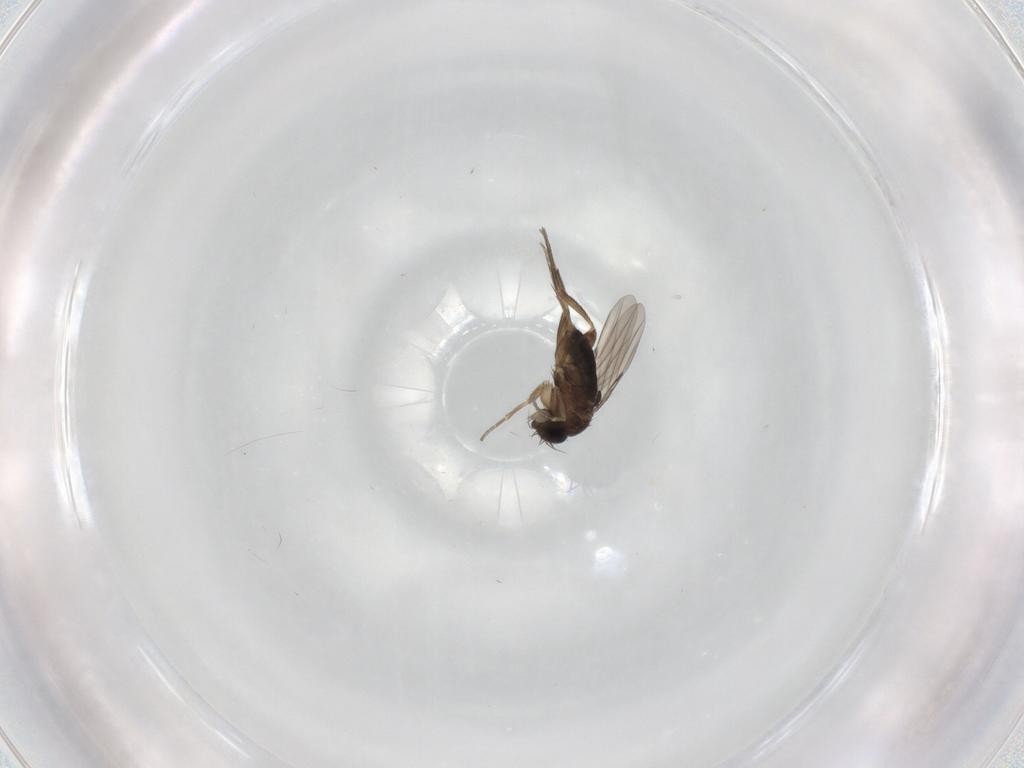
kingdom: Animalia
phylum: Arthropoda
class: Insecta
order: Diptera
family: Phoridae
